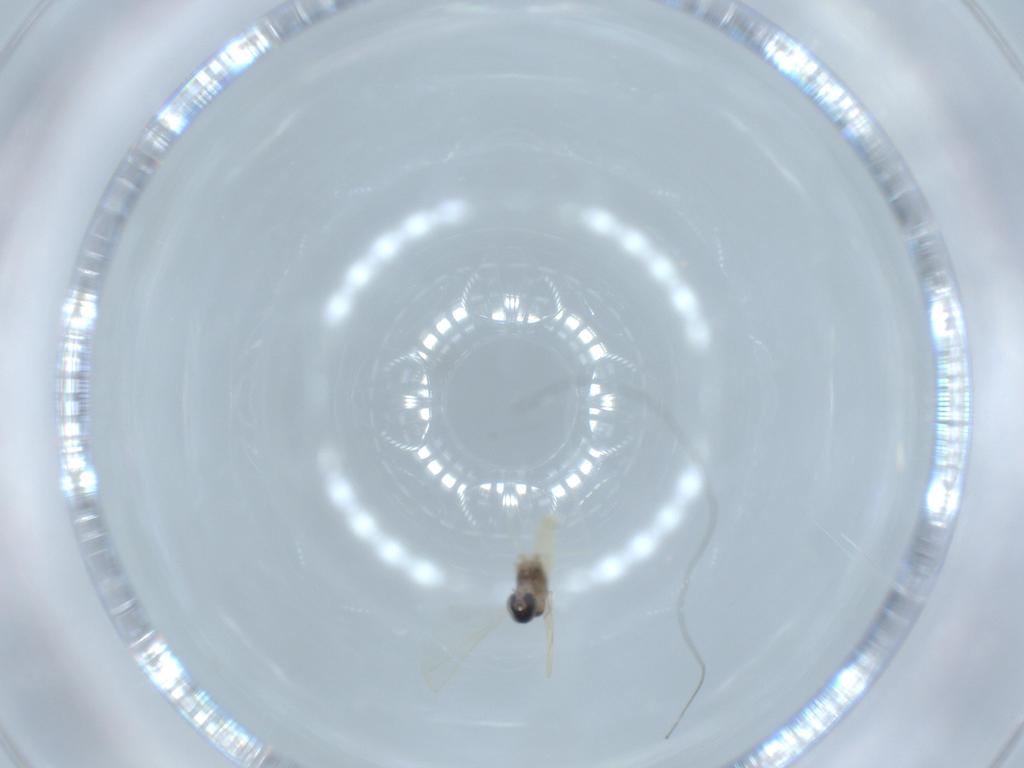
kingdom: Animalia
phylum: Arthropoda
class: Insecta
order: Diptera
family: Cecidomyiidae
